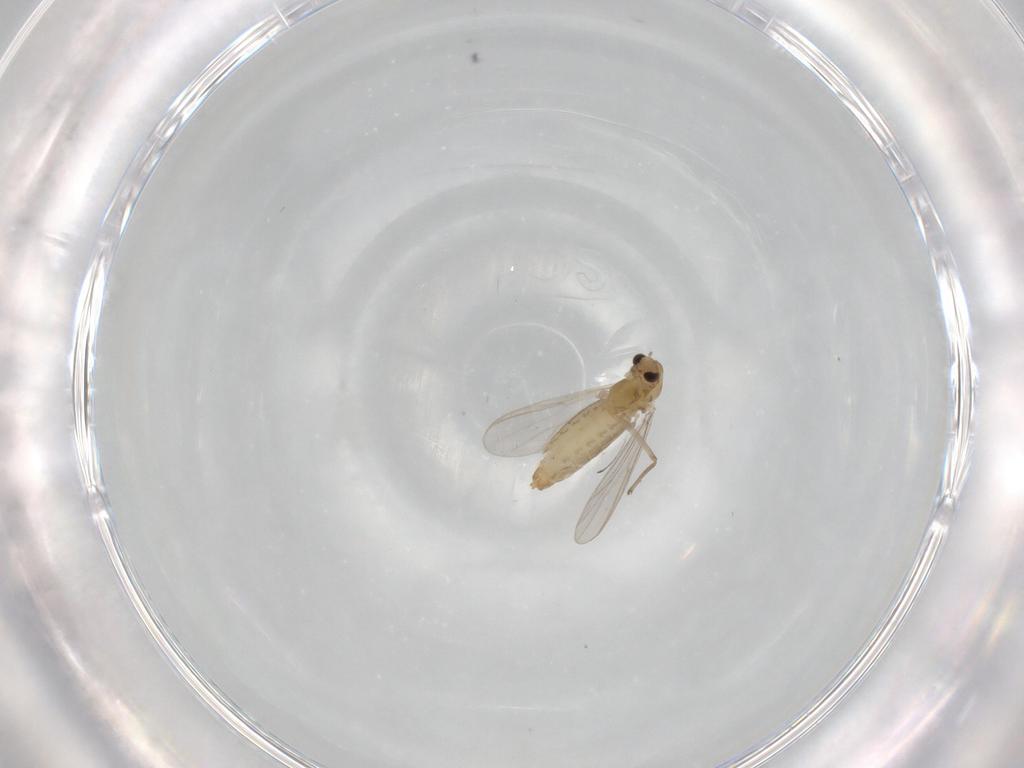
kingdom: Animalia
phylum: Arthropoda
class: Insecta
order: Diptera
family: Chironomidae
